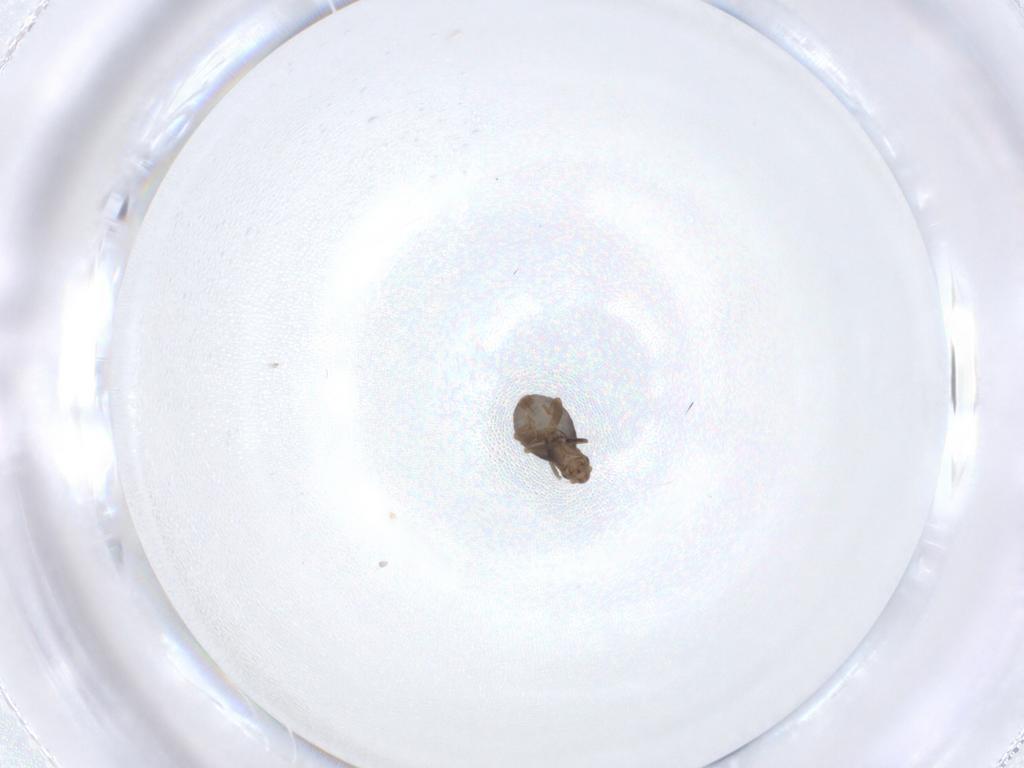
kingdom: Animalia
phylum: Arthropoda
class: Insecta
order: Diptera
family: Phoridae
